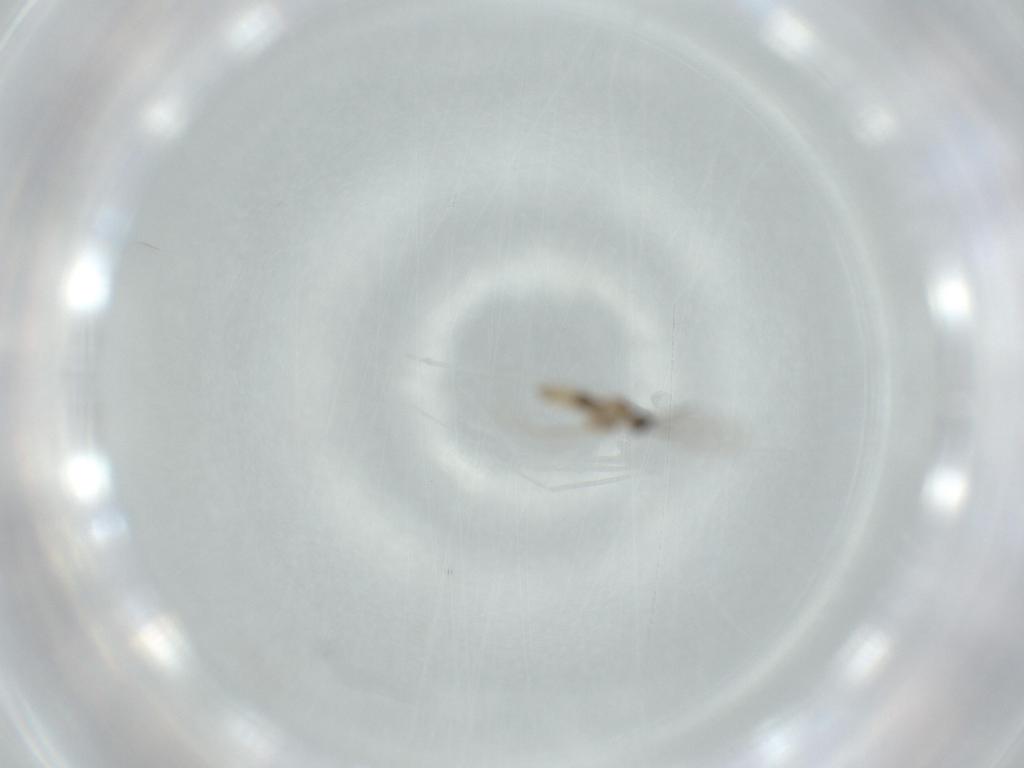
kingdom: Animalia
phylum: Arthropoda
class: Insecta
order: Diptera
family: Cecidomyiidae
